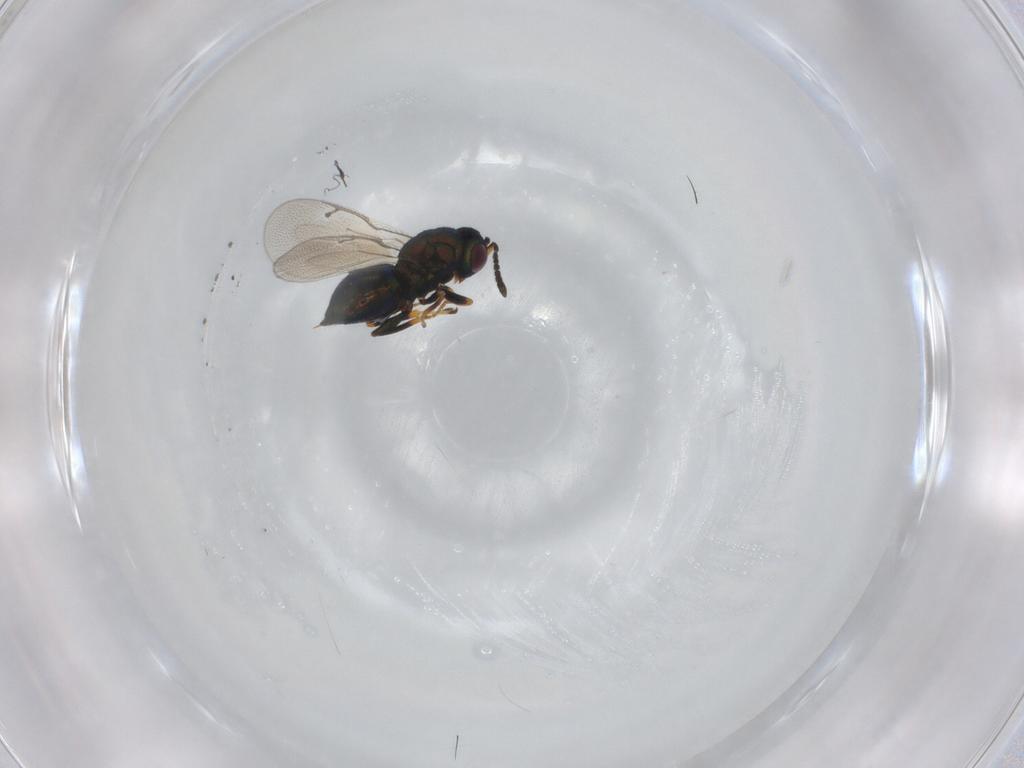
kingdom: Animalia
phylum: Arthropoda
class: Insecta
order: Hymenoptera
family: Pteromalidae
